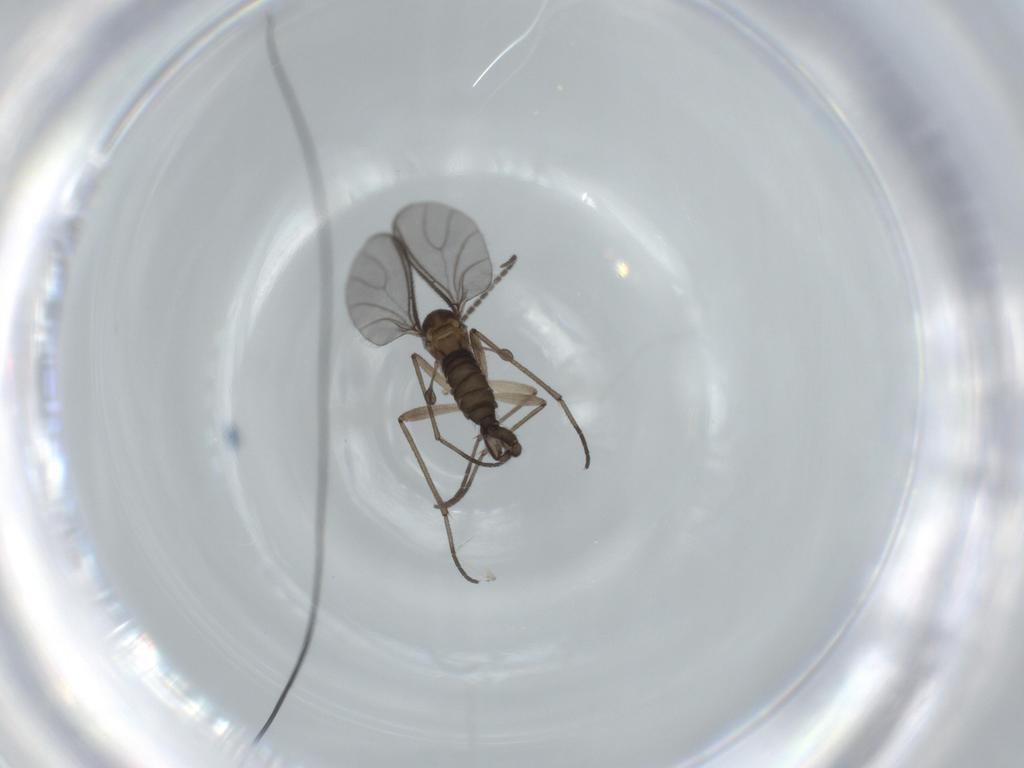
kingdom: Animalia
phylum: Arthropoda
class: Insecta
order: Diptera
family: Sciaridae
